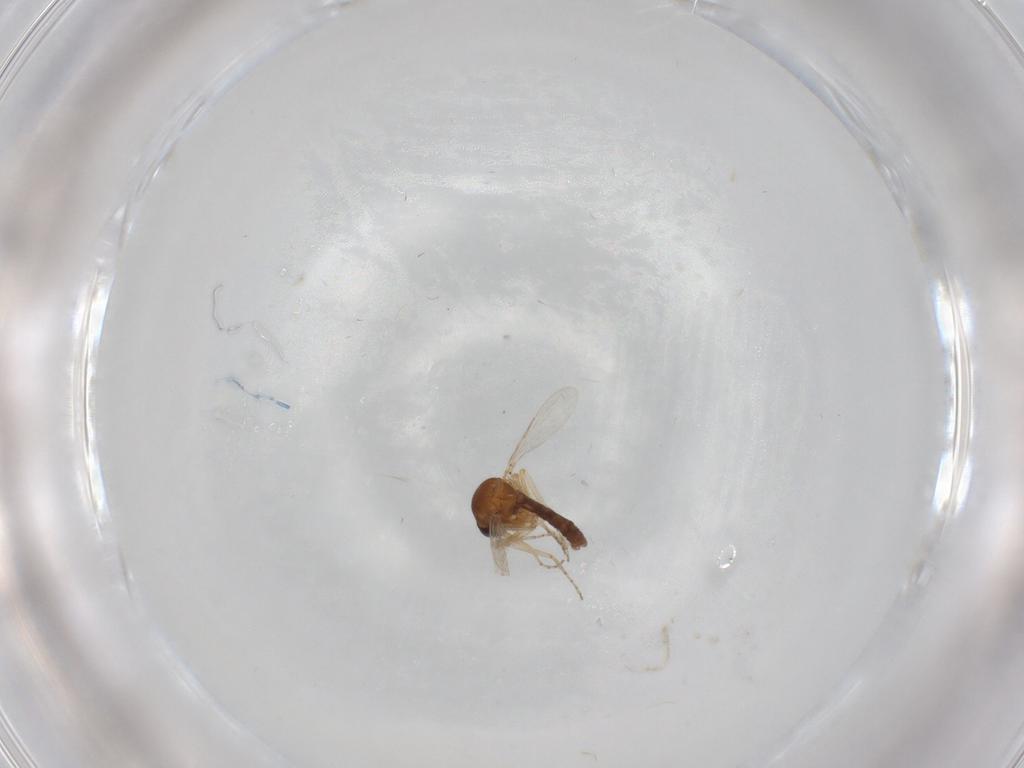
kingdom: Animalia
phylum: Arthropoda
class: Insecta
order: Diptera
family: Ceratopogonidae
